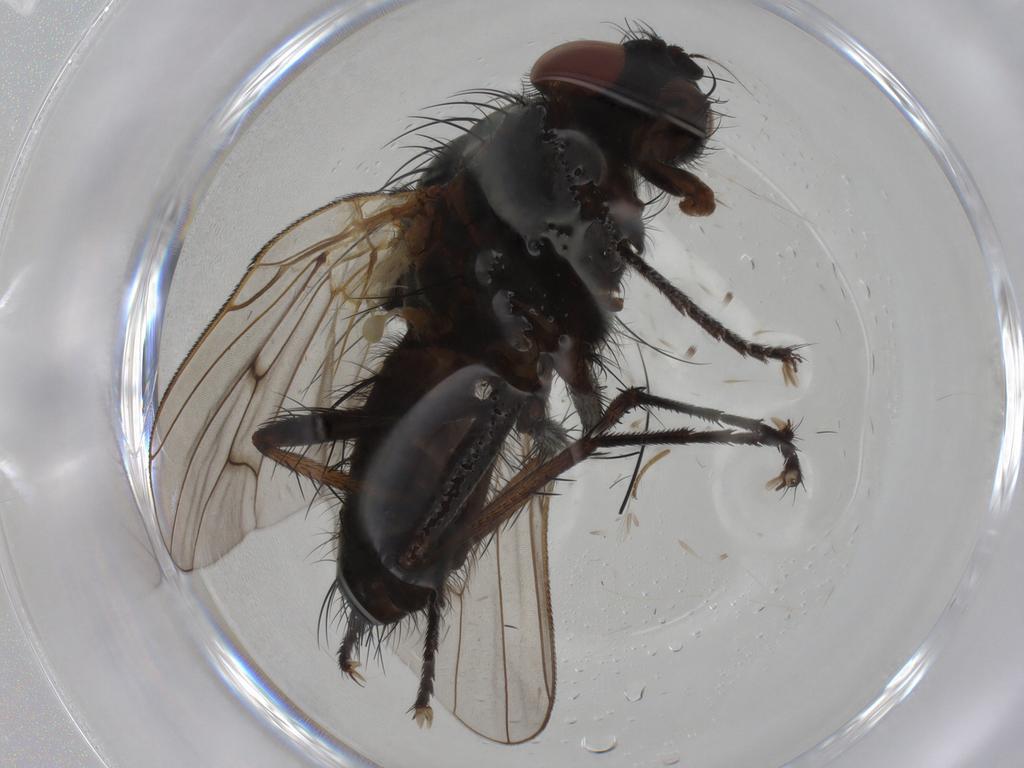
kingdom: Animalia
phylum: Arthropoda
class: Insecta
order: Diptera
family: Anthomyiidae
